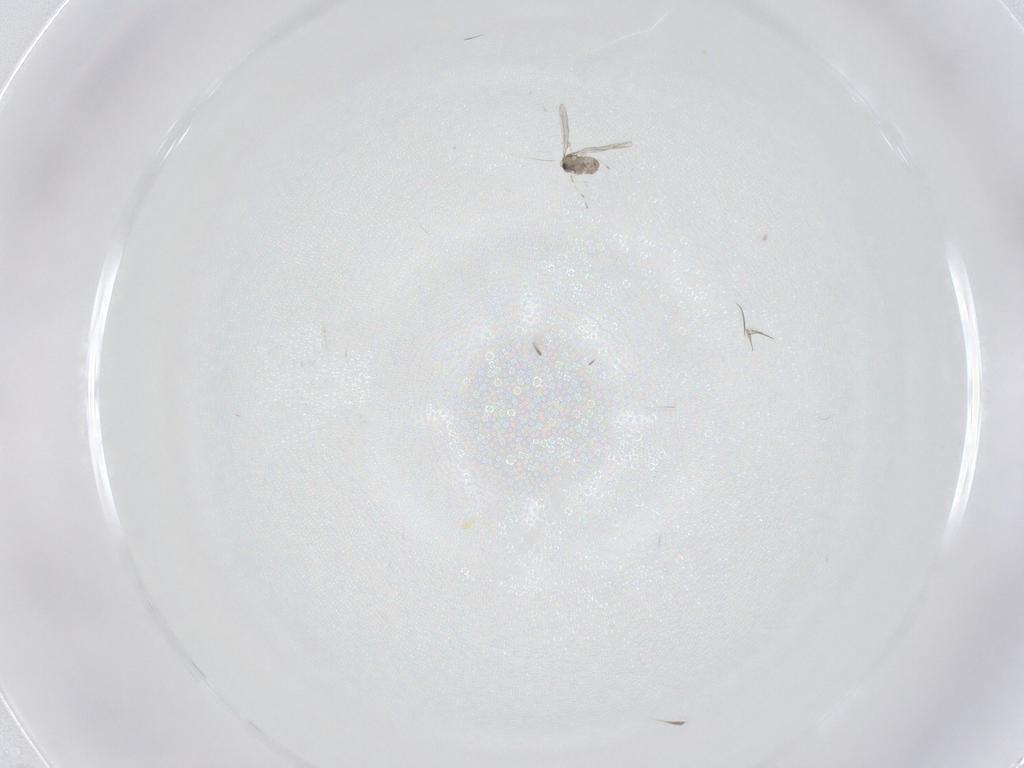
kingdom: Animalia
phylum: Arthropoda
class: Insecta
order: Diptera
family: Cecidomyiidae
